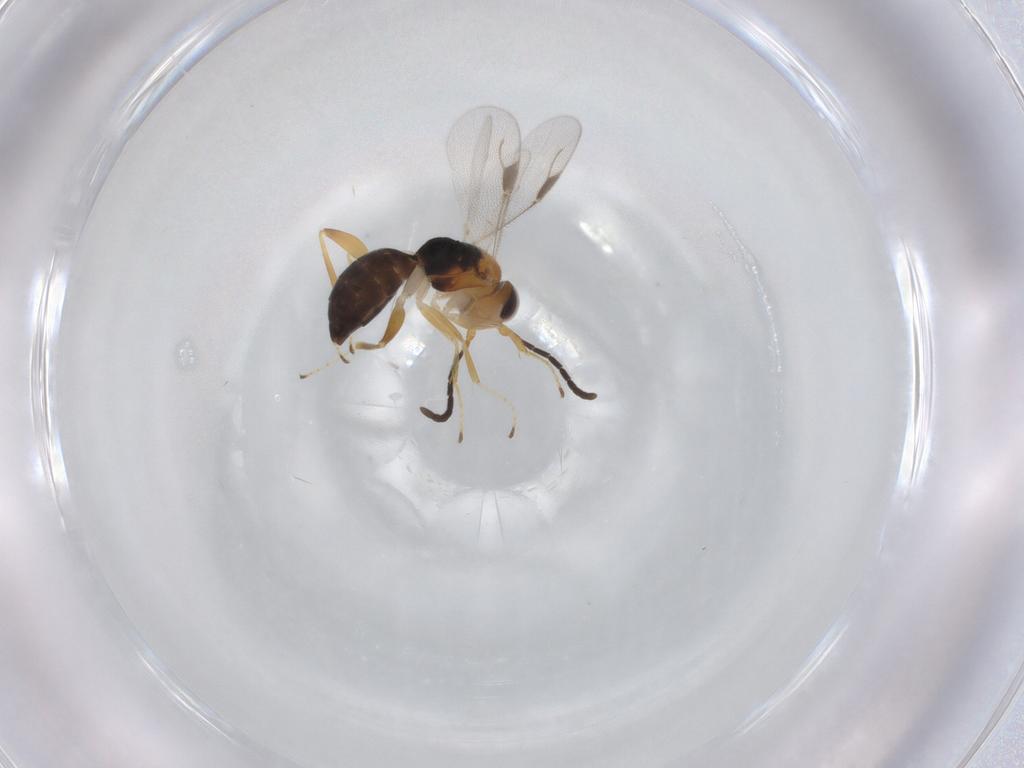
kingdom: Animalia
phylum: Arthropoda
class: Insecta
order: Hymenoptera
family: Dryinidae
